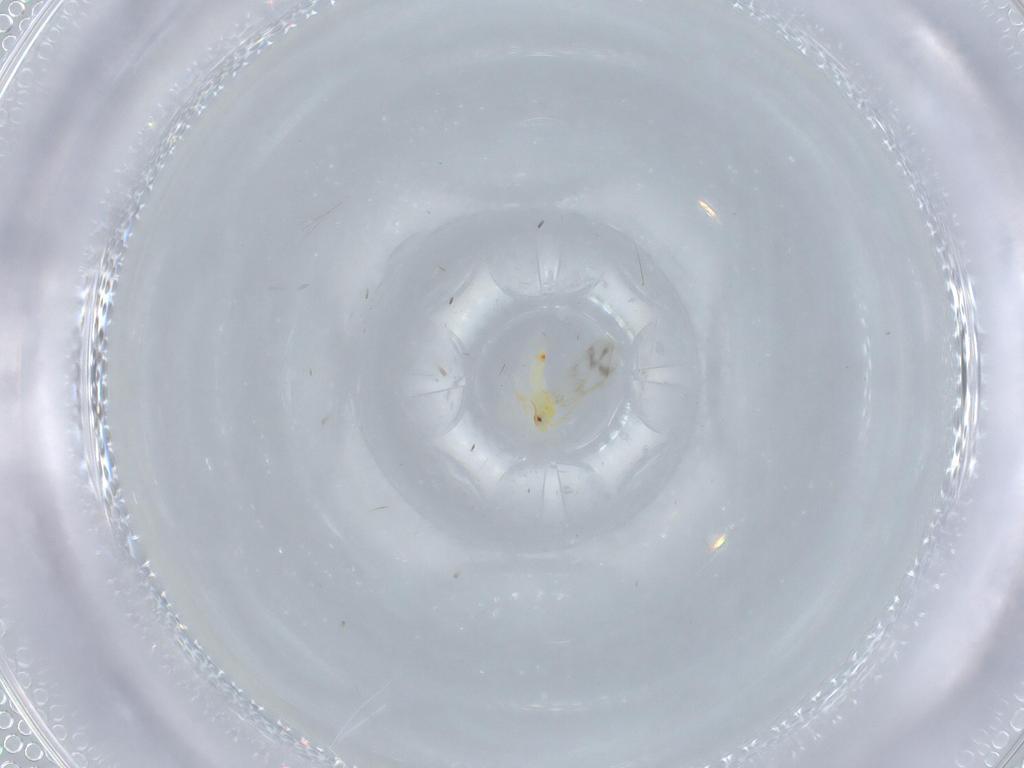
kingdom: Animalia
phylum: Arthropoda
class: Insecta
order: Hemiptera
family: Aleyrodidae
